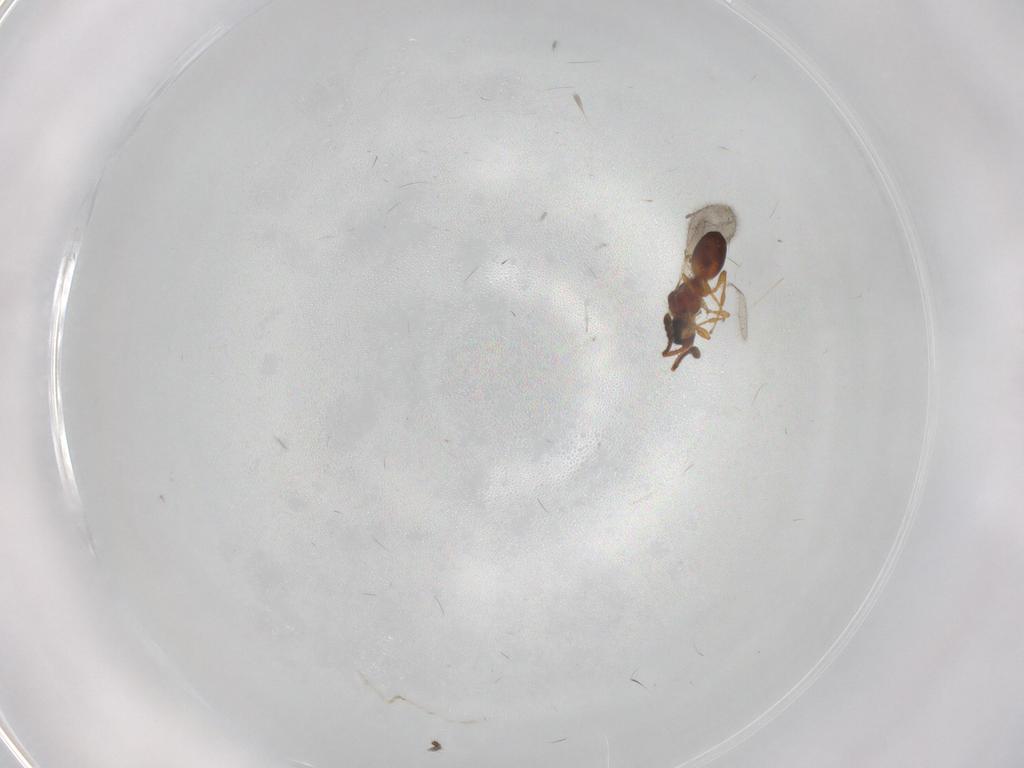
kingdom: Animalia
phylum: Arthropoda
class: Insecta
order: Hymenoptera
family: Diapriidae
